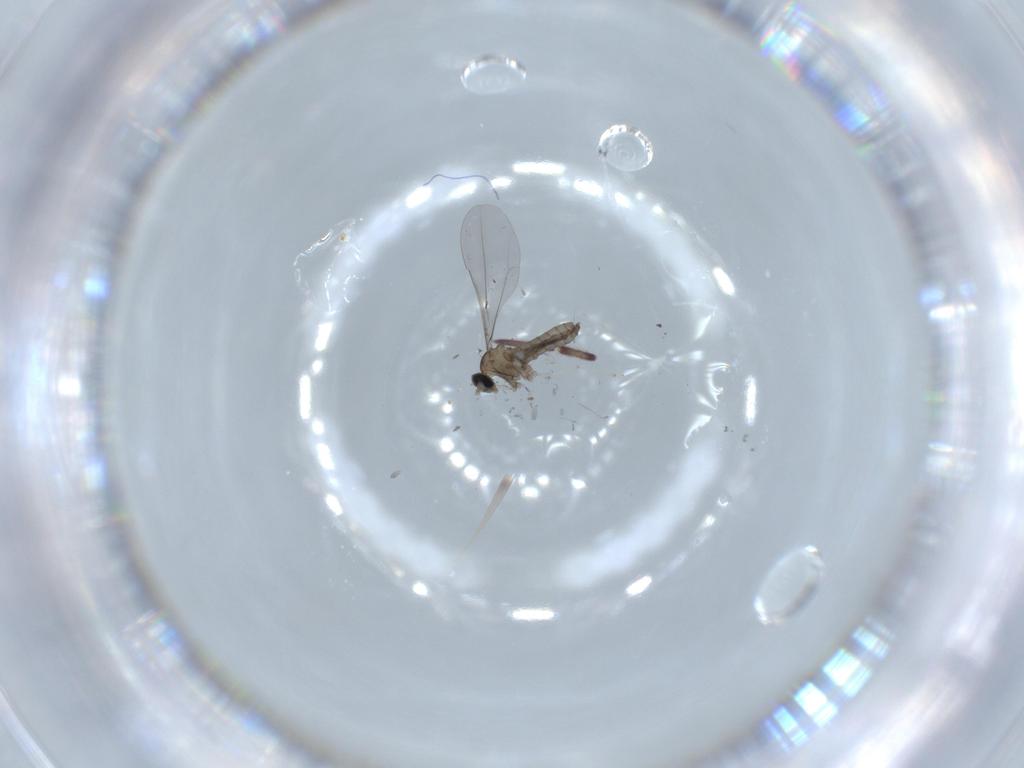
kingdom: Animalia
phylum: Arthropoda
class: Insecta
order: Diptera
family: Cecidomyiidae
